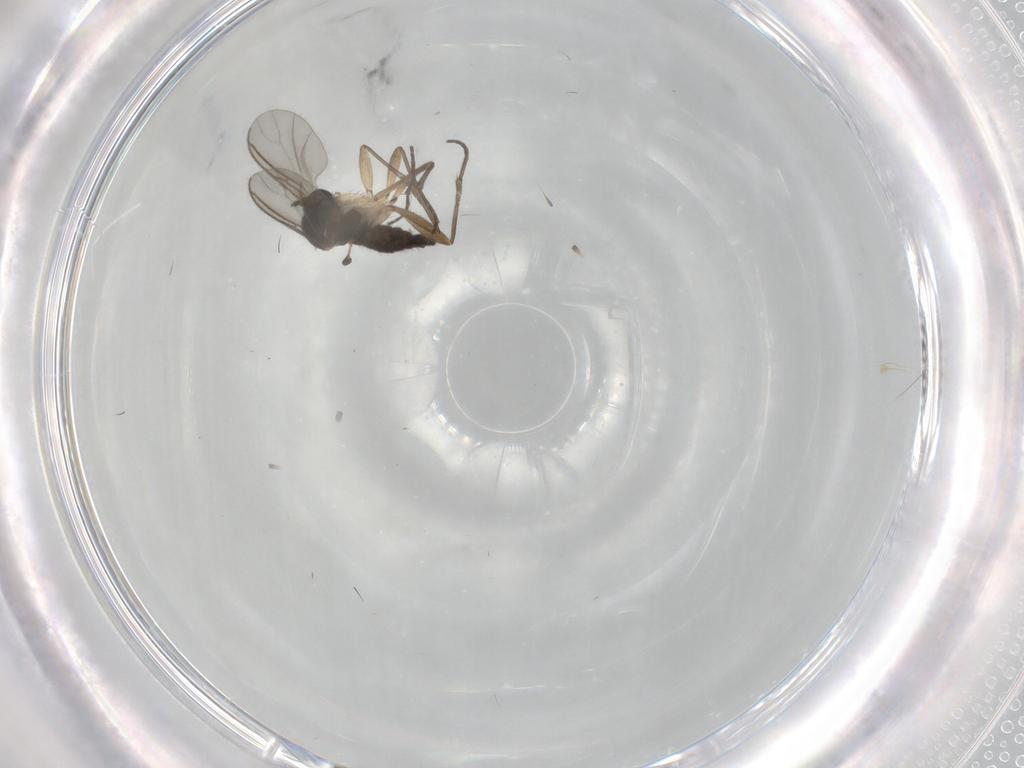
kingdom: Animalia
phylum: Arthropoda
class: Insecta
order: Diptera
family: Sciaridae
